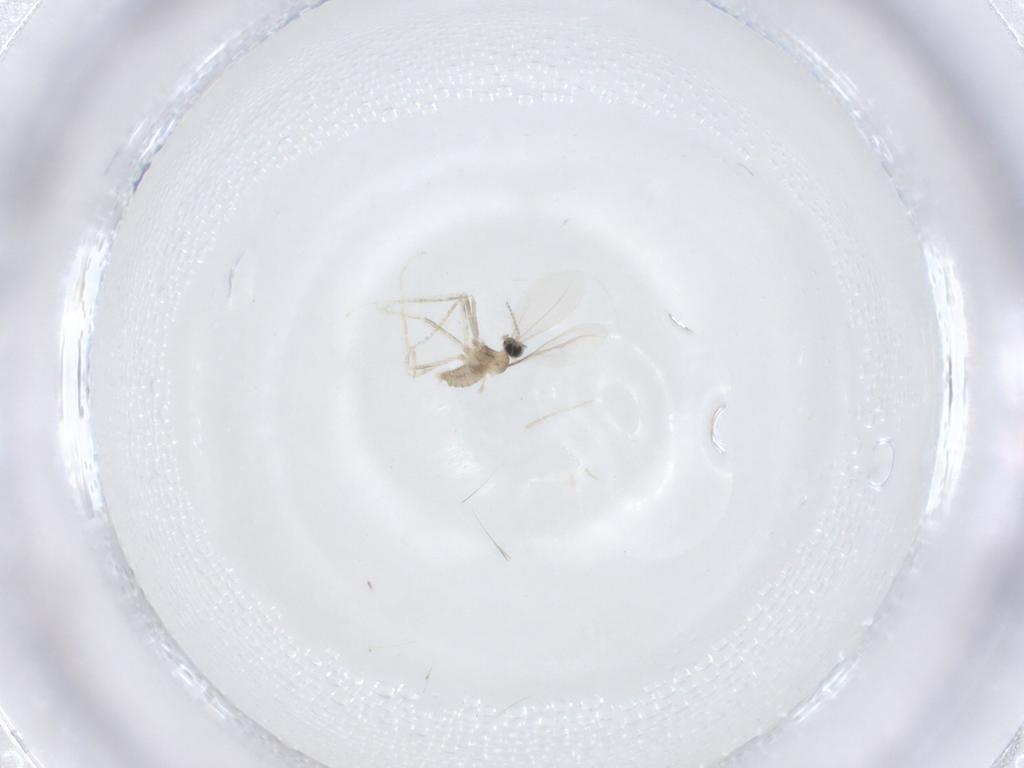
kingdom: Animalia
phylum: Arthropoda
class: Insecta
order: Diptera
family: Cecidomyiidae
